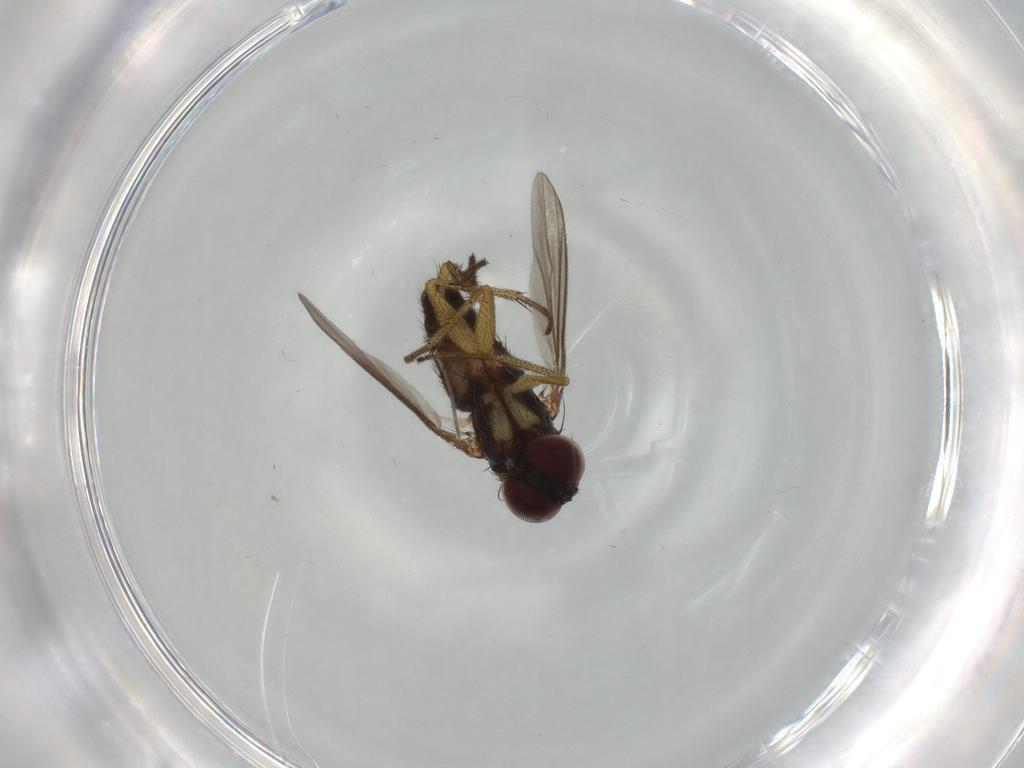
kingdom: Animalia
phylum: Arthropoda
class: Insecta
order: Diptera
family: Dolichopodidae
